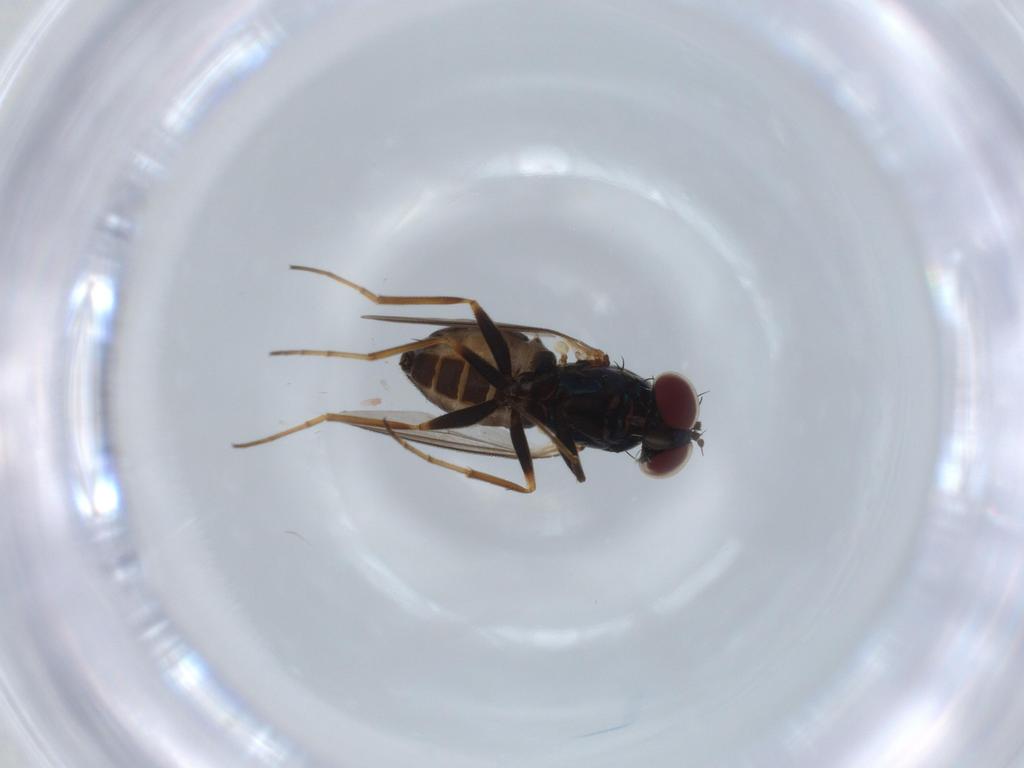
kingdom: Animalia
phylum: Arthropoda
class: Insecta
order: Diptera
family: Dolichopodidae
